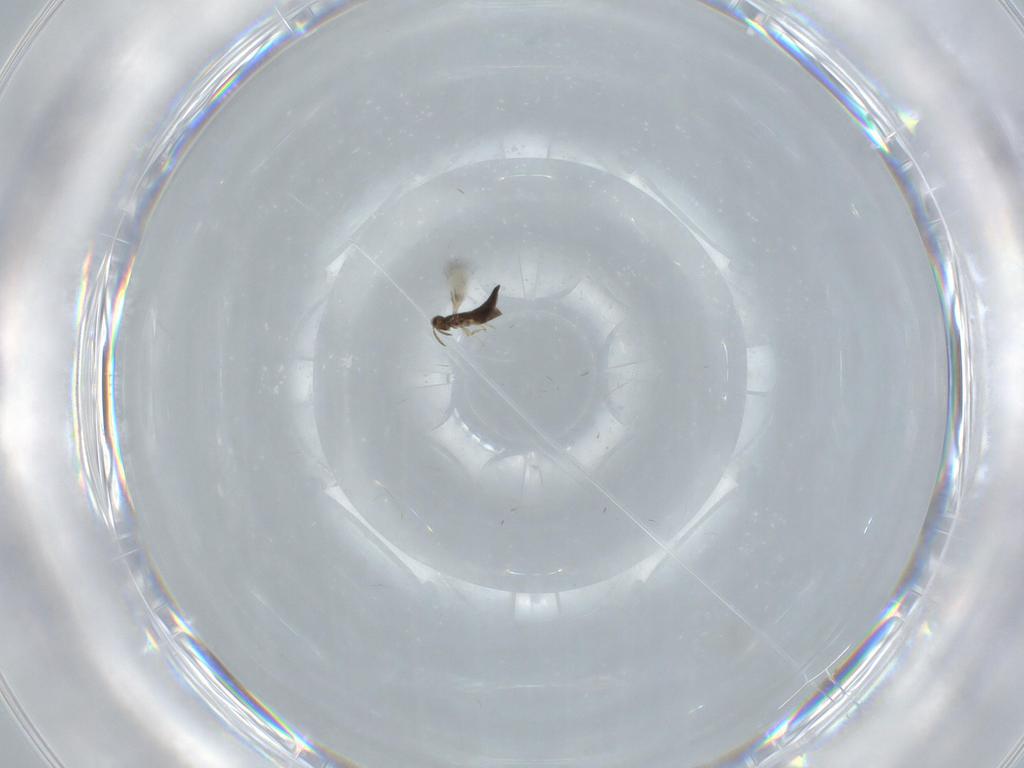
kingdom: Animalia
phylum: Arthropoda
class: Insecta
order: Hymenoptera
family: Signiphoridae
